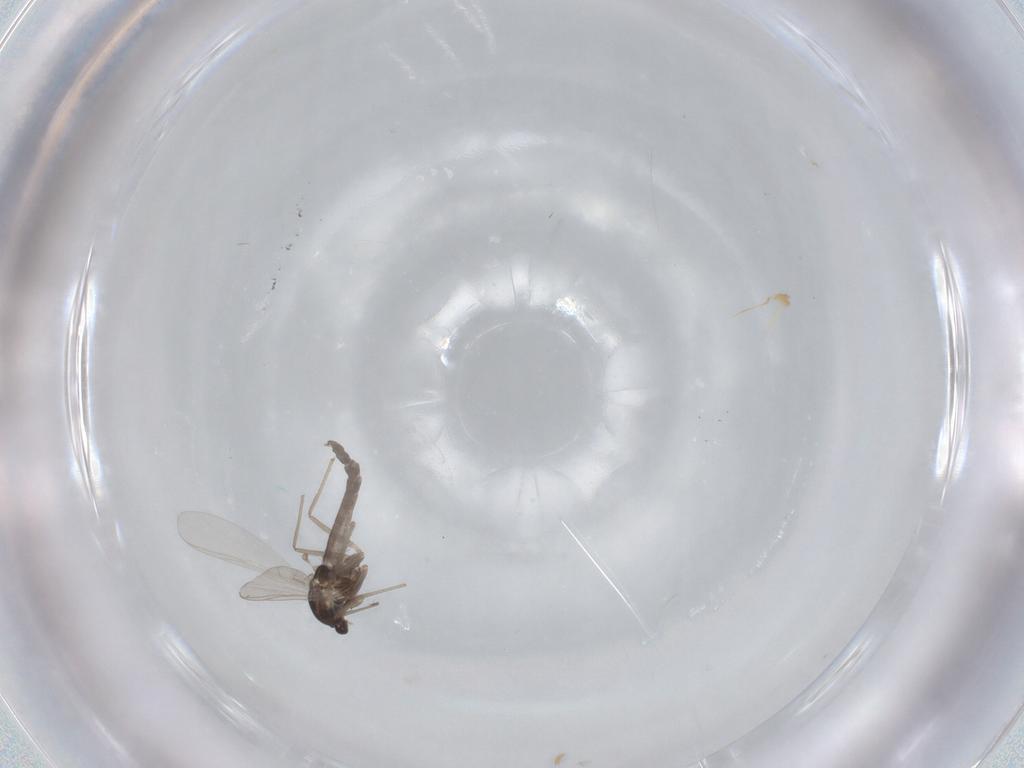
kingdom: Animalia
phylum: Arthropoda
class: Insecta
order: Diptera
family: Chironomidae
